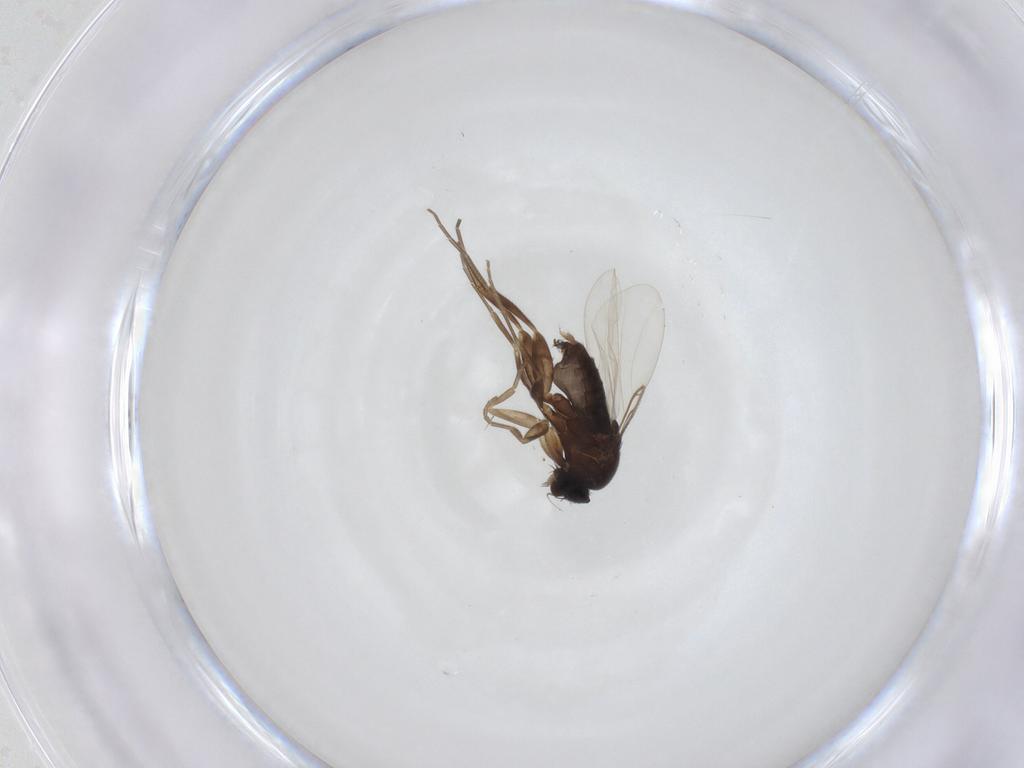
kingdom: Animalia
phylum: Arthropoda
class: Insecta
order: Diptera
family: Phoridae
